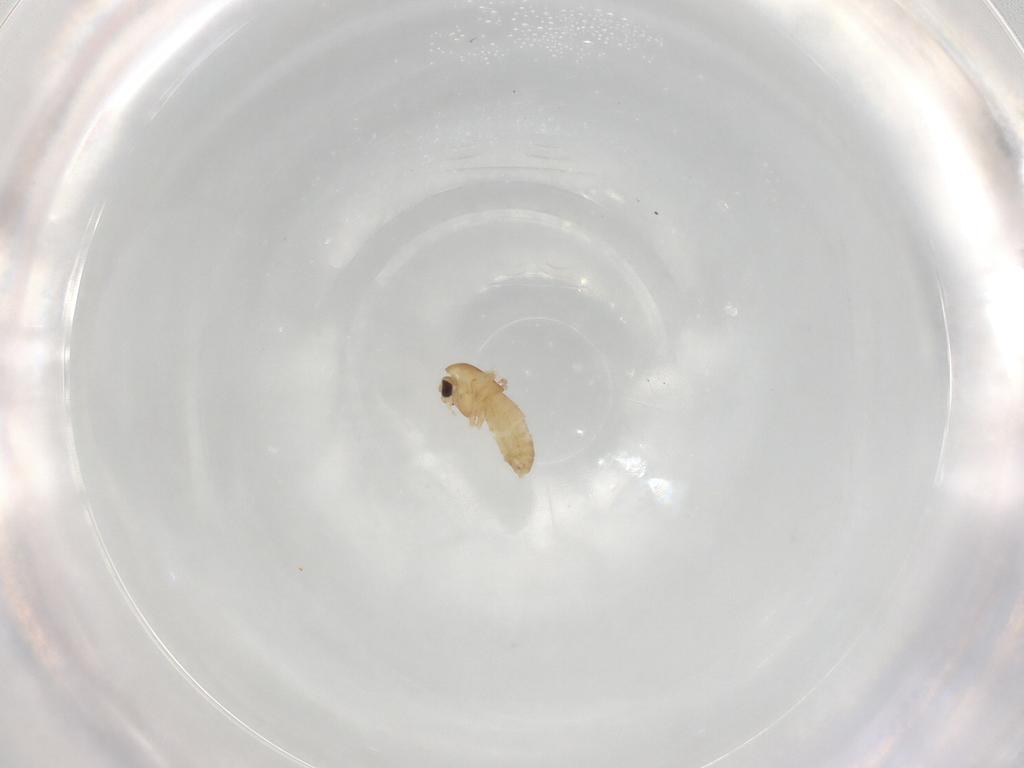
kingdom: Animalia
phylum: Arthropoda
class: Insecta
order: Diptera
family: Chironomidae
